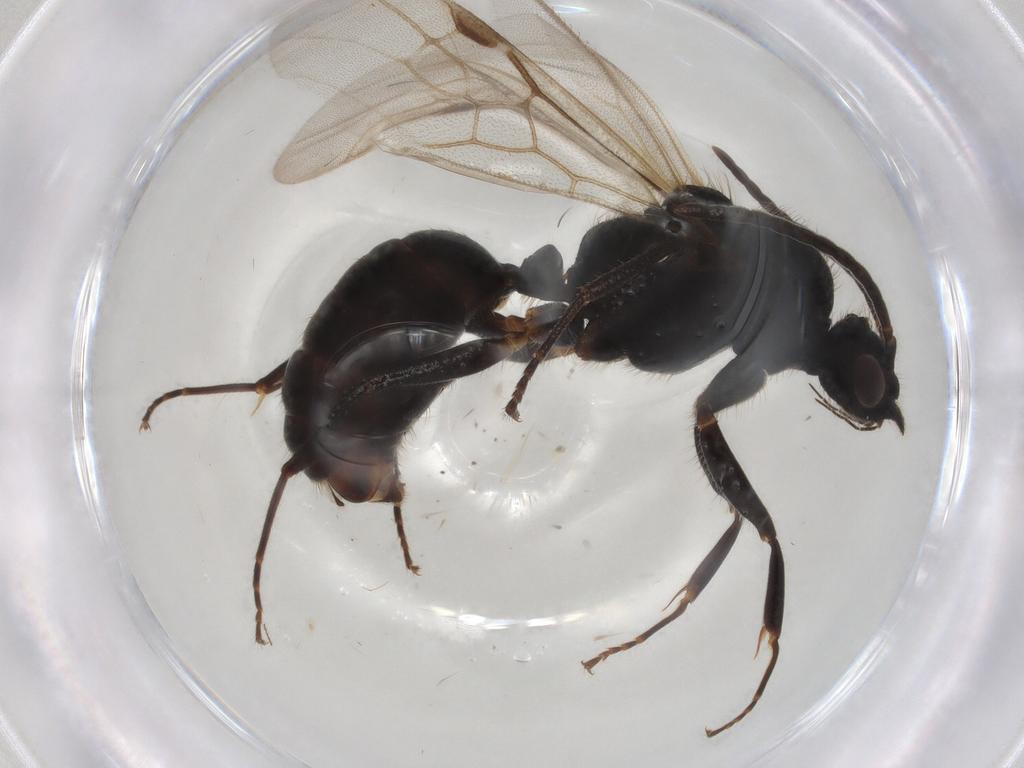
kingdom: Animalia
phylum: Arthropoda
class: Insecta
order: Hymenoptera
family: Formicidae
